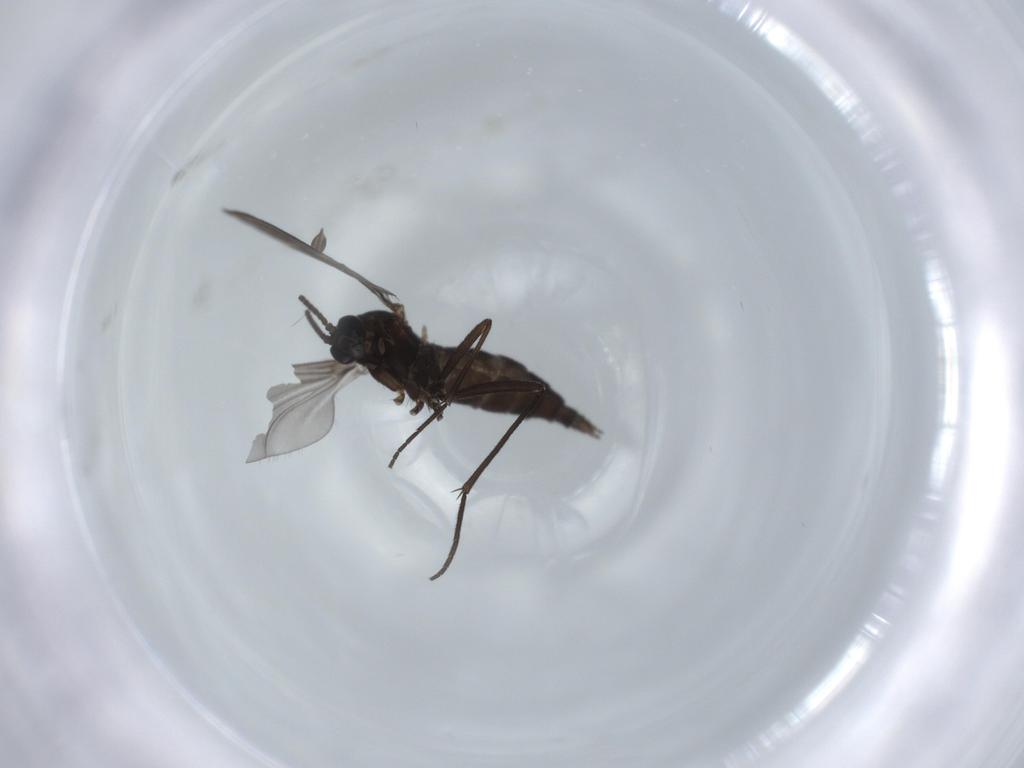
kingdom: Animalia
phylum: Arthropoda
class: Insecta
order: Diptera
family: Sciaridae
